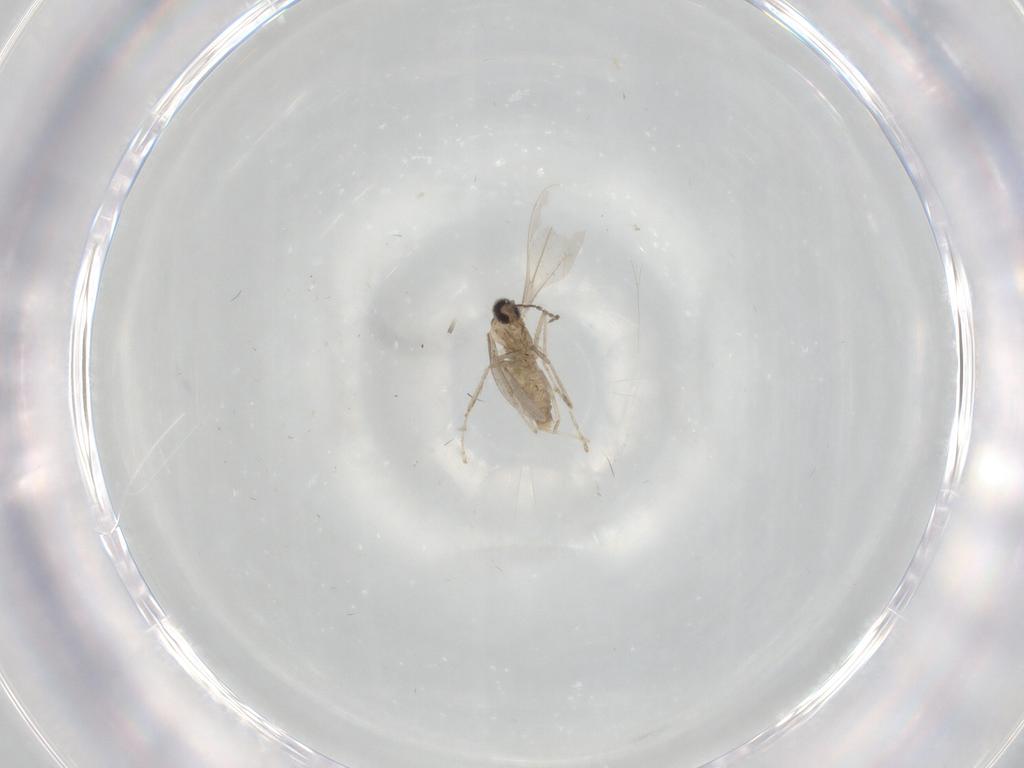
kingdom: Animalia
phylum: Arthropoda
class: Insecta
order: Diptera
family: Cecidomyiidae
